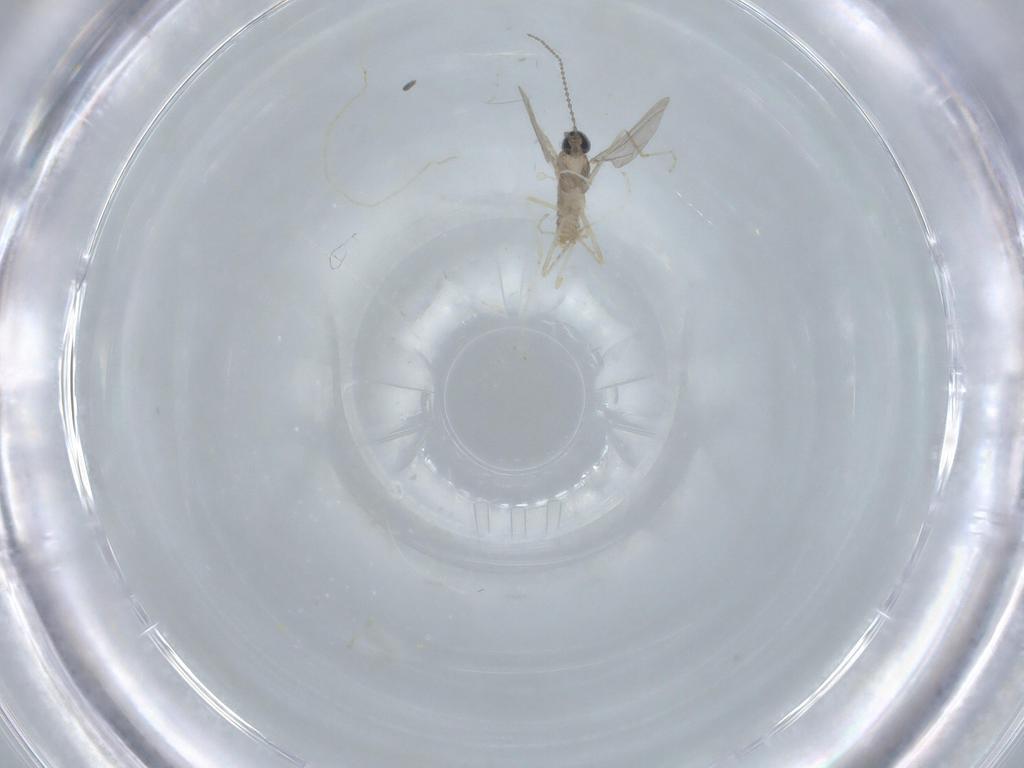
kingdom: Animalia
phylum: Arthropoda
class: Insecta
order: Diptera
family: Cecidomyiidae
